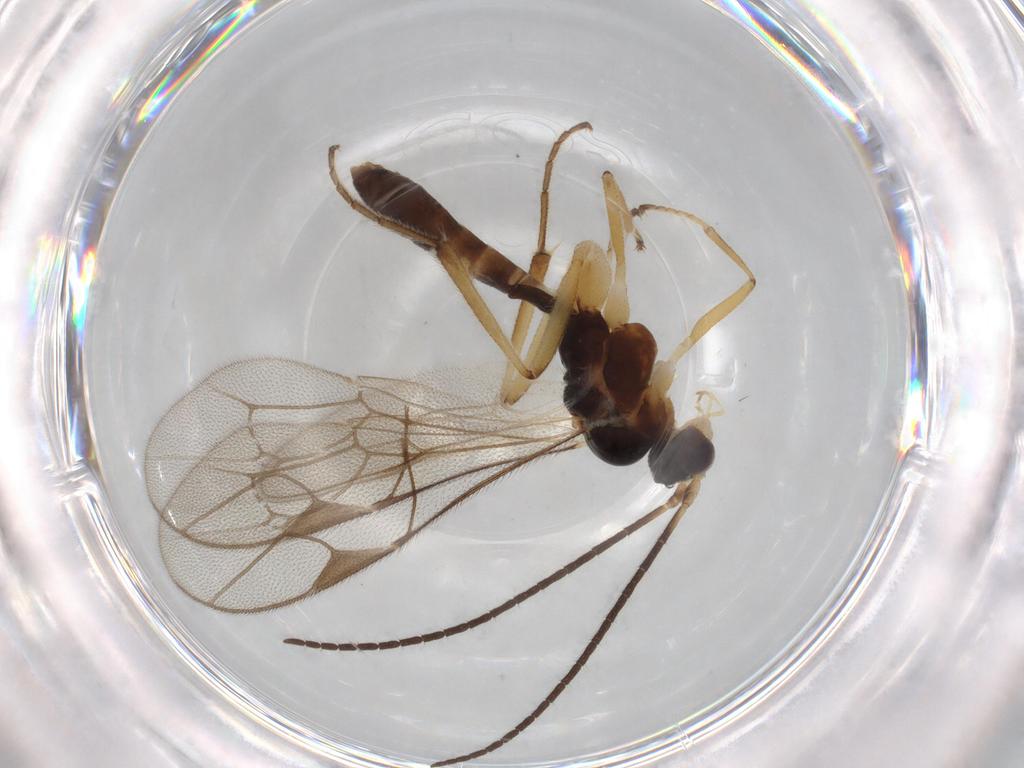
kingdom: Animalia
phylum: Arthropoda
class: Insecta
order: Hymenoptera
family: Ichneumonidae
